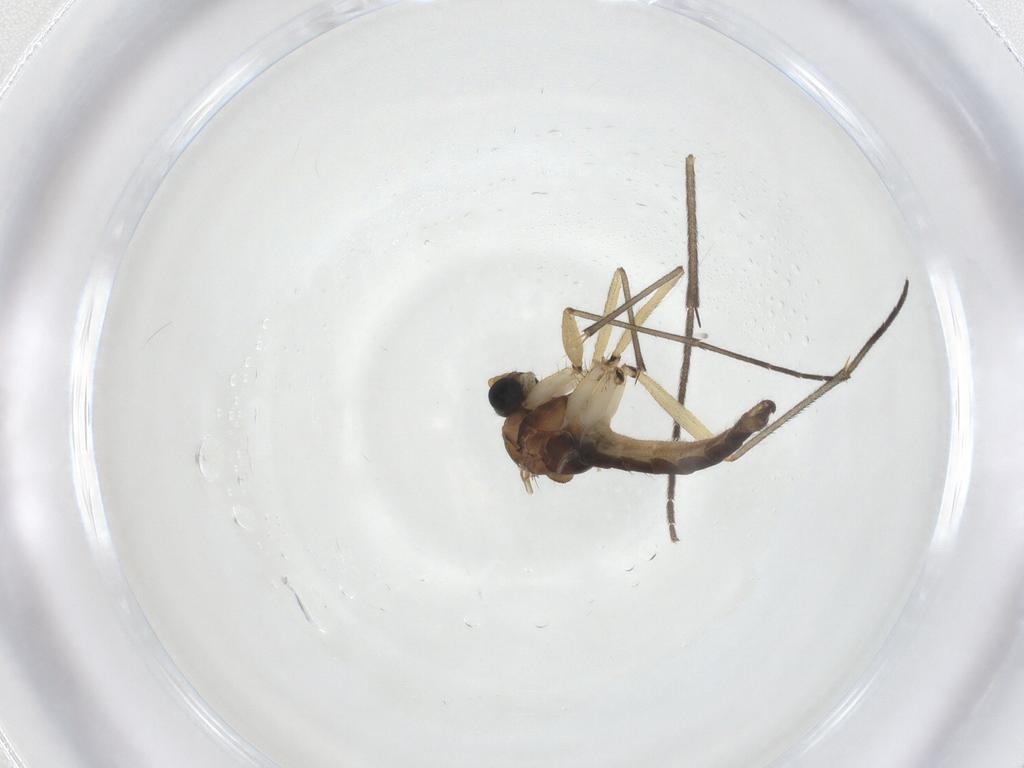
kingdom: Animalia
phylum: Arthropoda
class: Insecta
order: Diptera
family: Sciaridae
